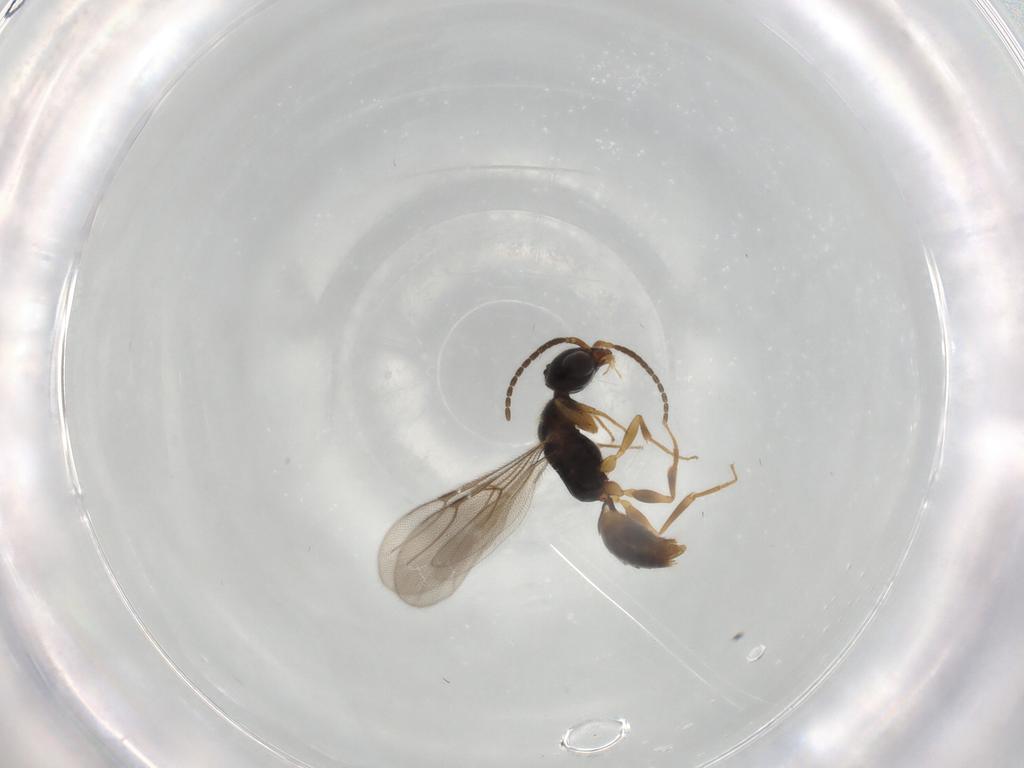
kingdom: Animalia
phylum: Arthropoda
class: Insecta
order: Hymenoptera
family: Bethylidae
